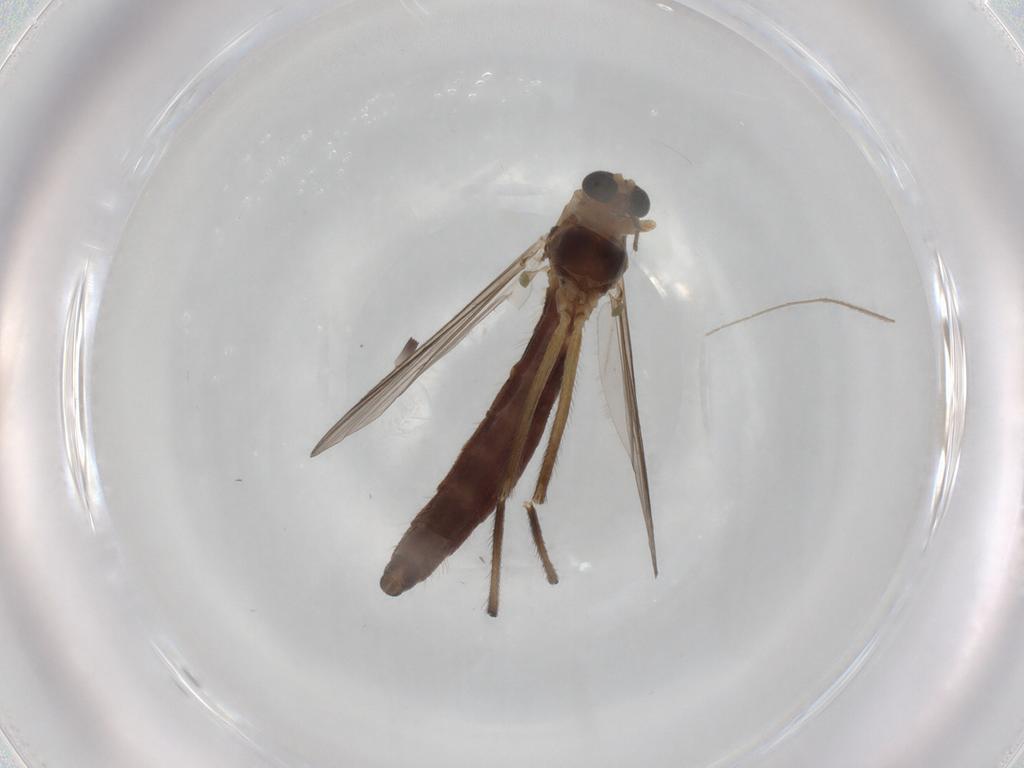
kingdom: Animalia
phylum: Arthropoda
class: Insecta
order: Diptera
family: Chironomidae
